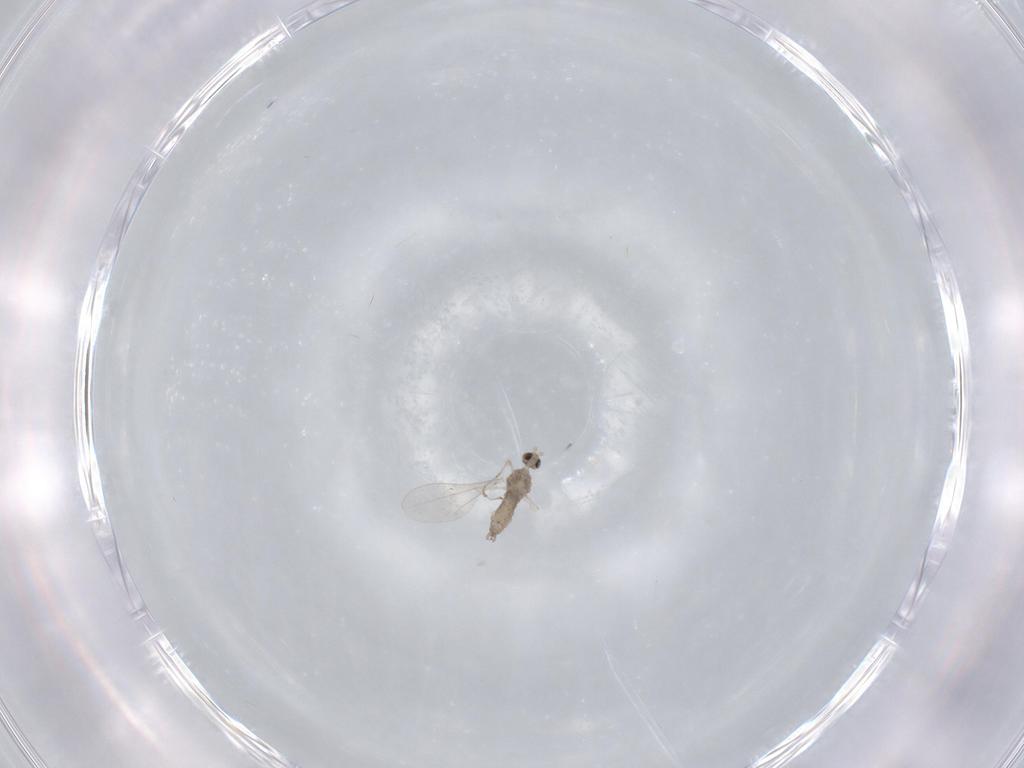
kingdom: Animalia
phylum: Arthropoda
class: Insecta
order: Diptera
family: Cecidomyiidae
